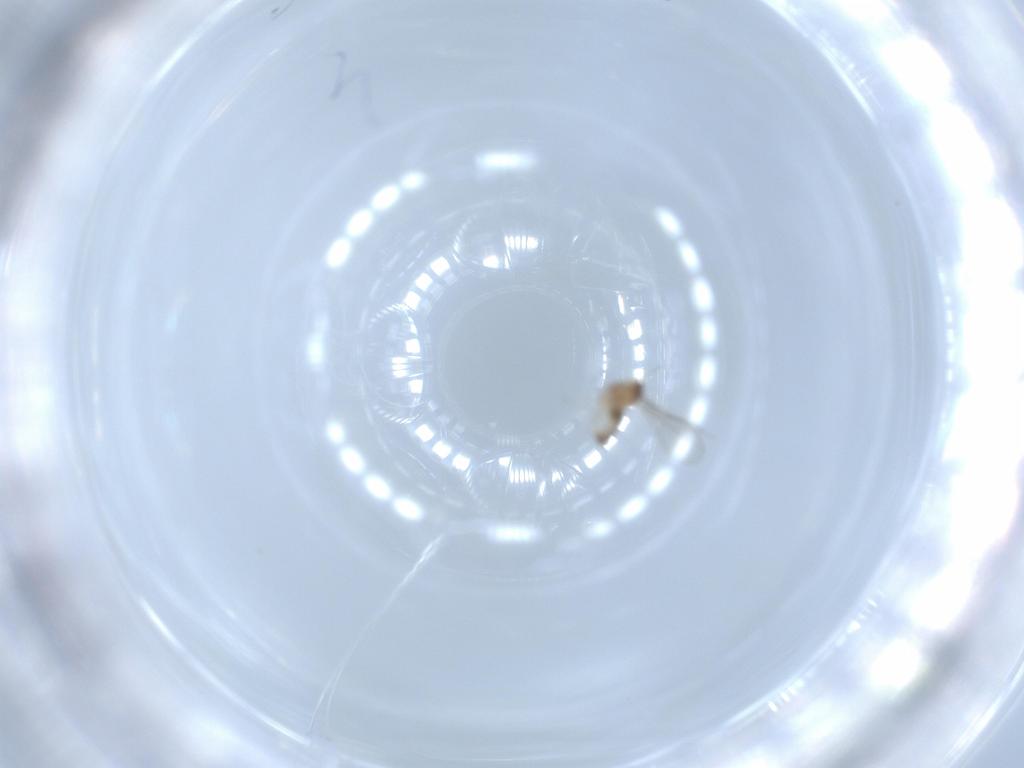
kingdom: Animalia
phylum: Arthropoda
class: Insecta
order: Diptera
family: Cecidomyiidae
